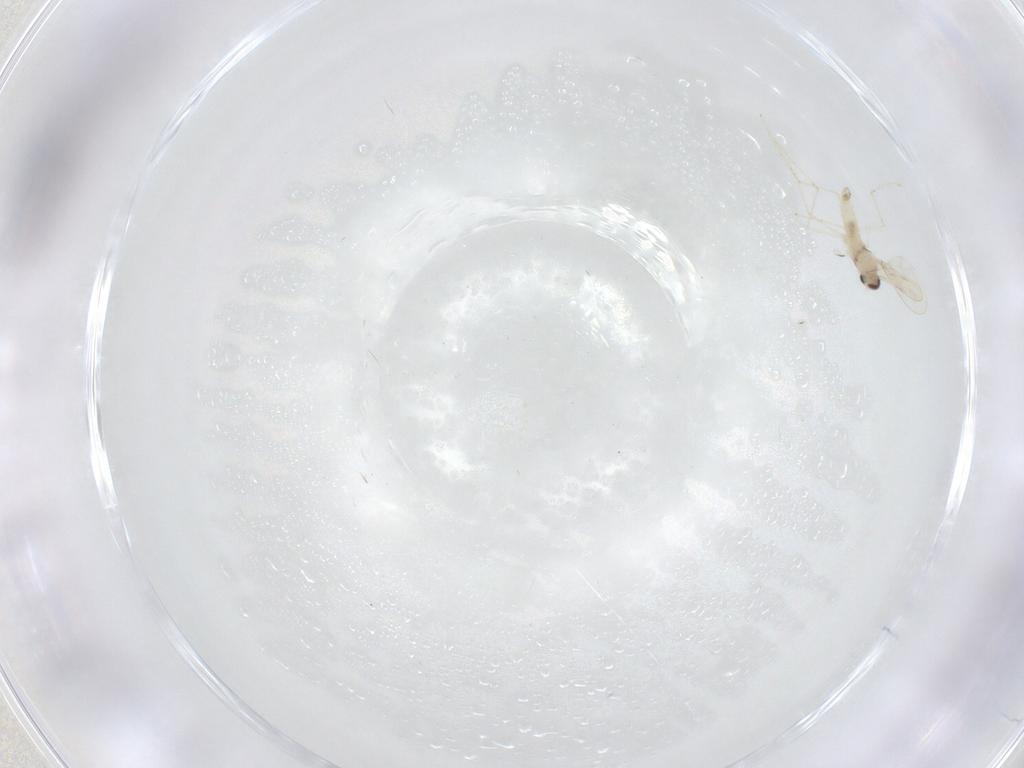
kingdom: Animalia
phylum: Arthropoda
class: Insecta
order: Diptera
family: Cecidomyiidae
